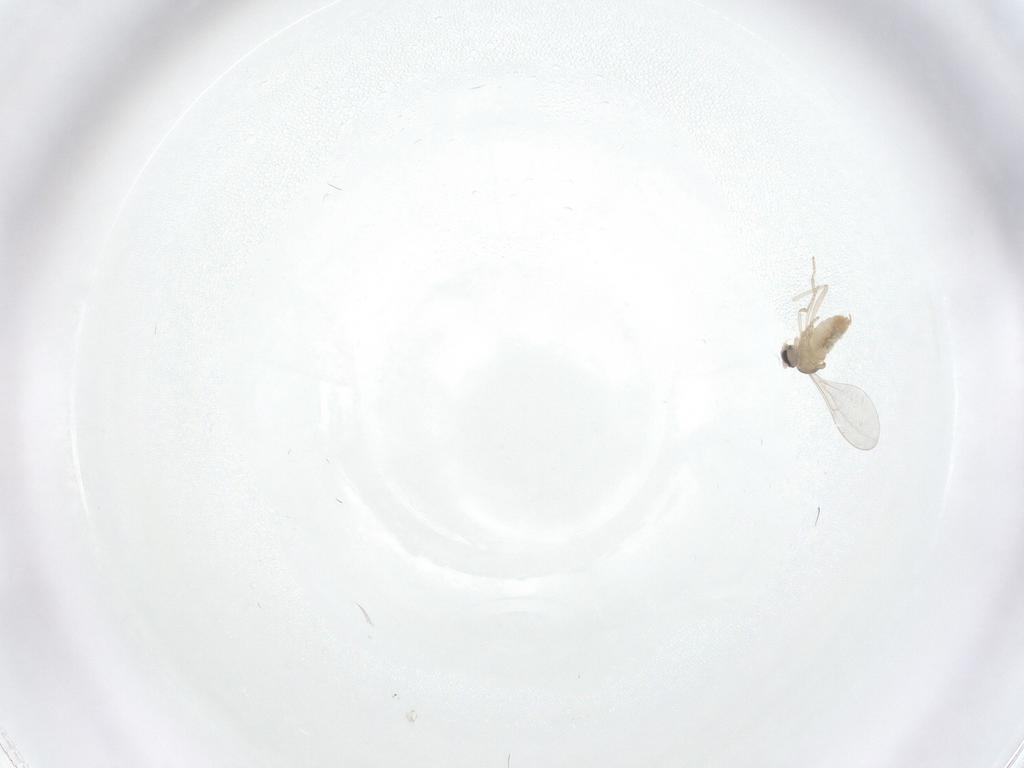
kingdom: Animalia
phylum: Arthropoda
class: Insecta
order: Diptera
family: Cecidomyiidae
